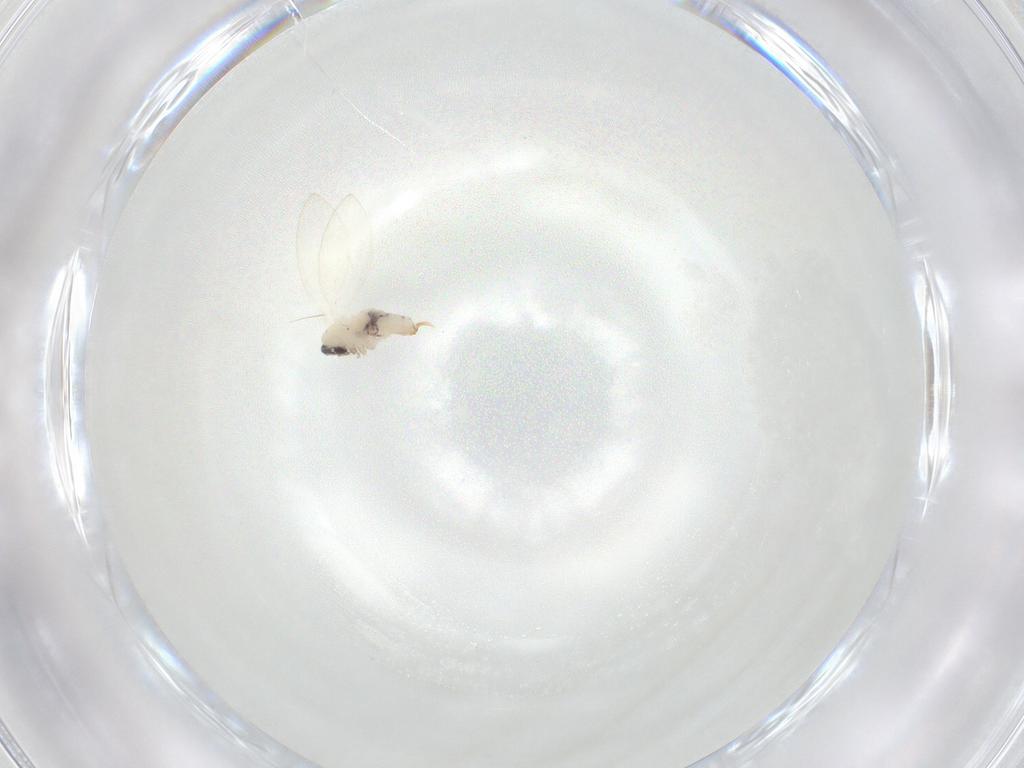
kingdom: Animalia
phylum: Arthropoda
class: Insecta
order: Diptera
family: Psychodidae
